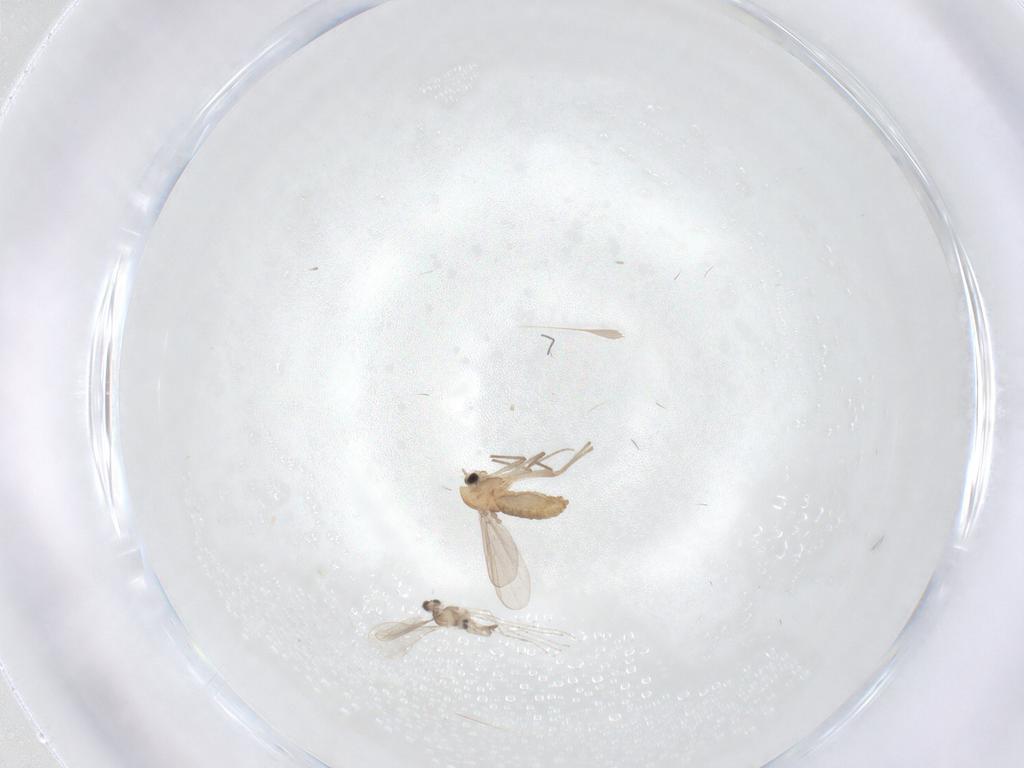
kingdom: Animalia
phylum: Arthropoda
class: Insecta
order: Diptera
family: Chironomidae
